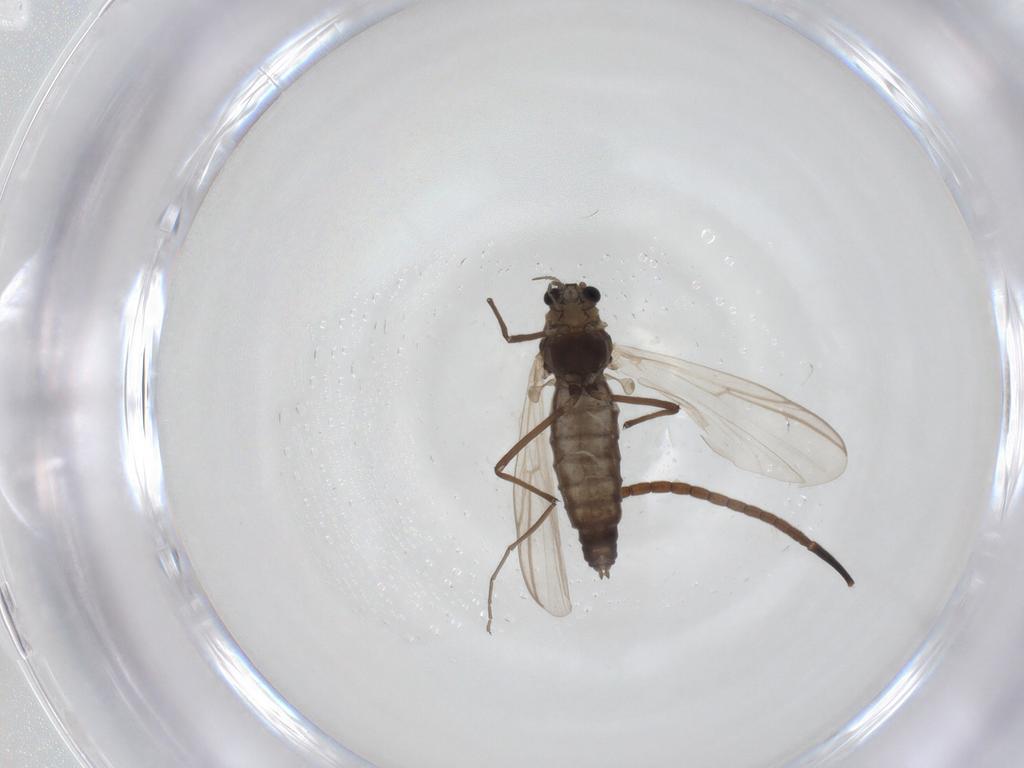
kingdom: Animalia
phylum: Arthropoda
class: Insecta
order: Diptera
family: Chironomidae
